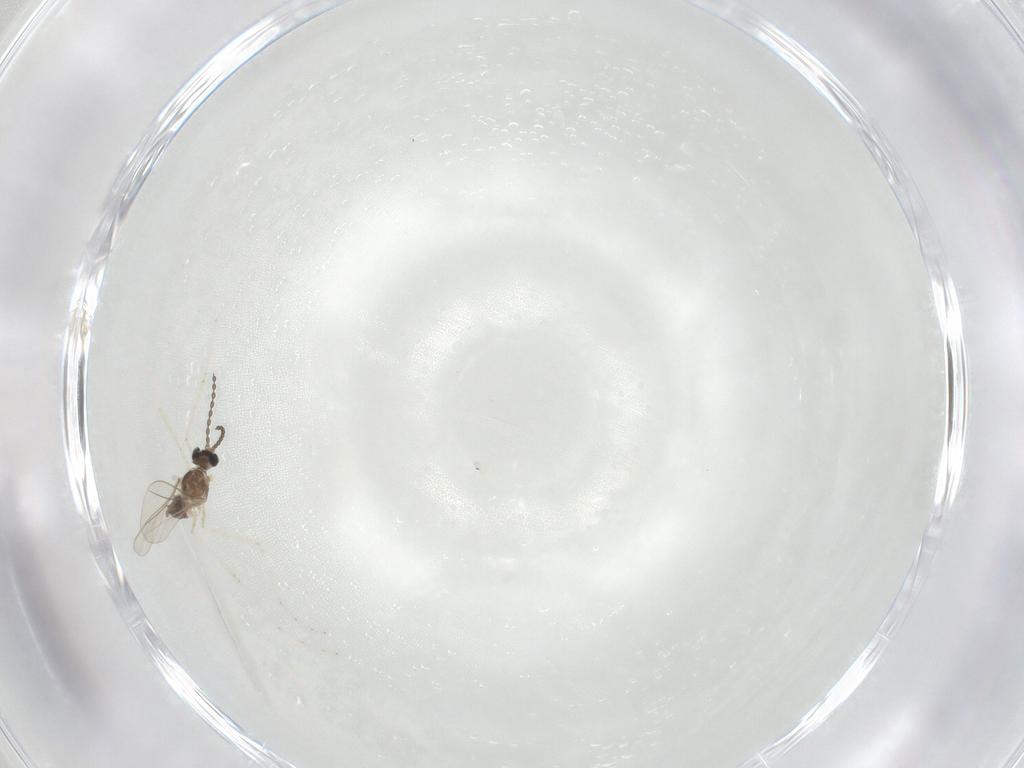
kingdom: Animalia
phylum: Arthropoda
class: Insecta
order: Diptera
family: Cecidomyiidae
